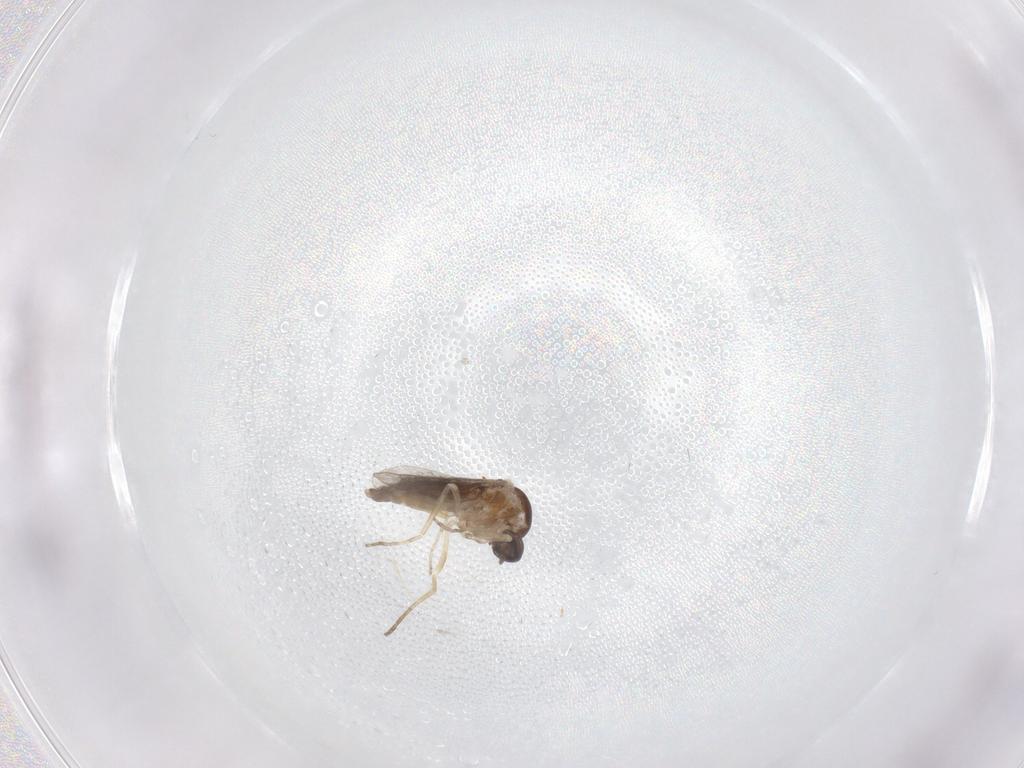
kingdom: Animalia
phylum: Arthropoda
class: Insecta
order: Diptera
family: Ceratopogonidae
